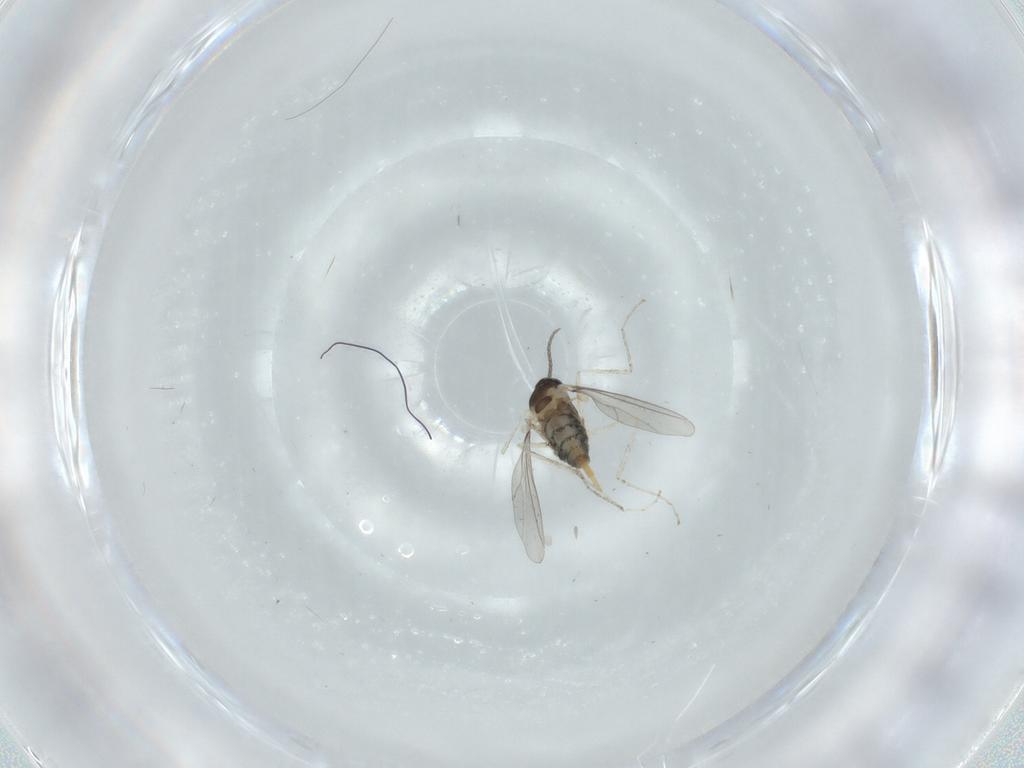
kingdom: Animalia
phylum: Arthropoda
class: Insecta
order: Diptera
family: Cecidomyiidae
